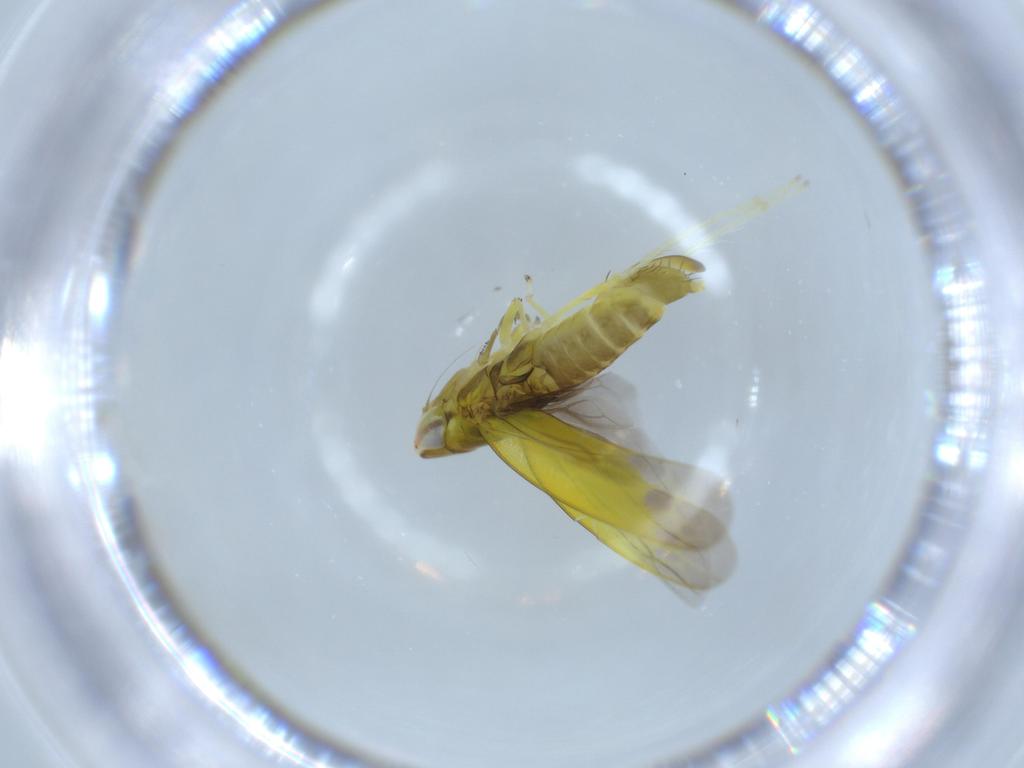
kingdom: Animalia
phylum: Arthropoda
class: Insecta
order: Hemiptera
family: Cicadellidae
